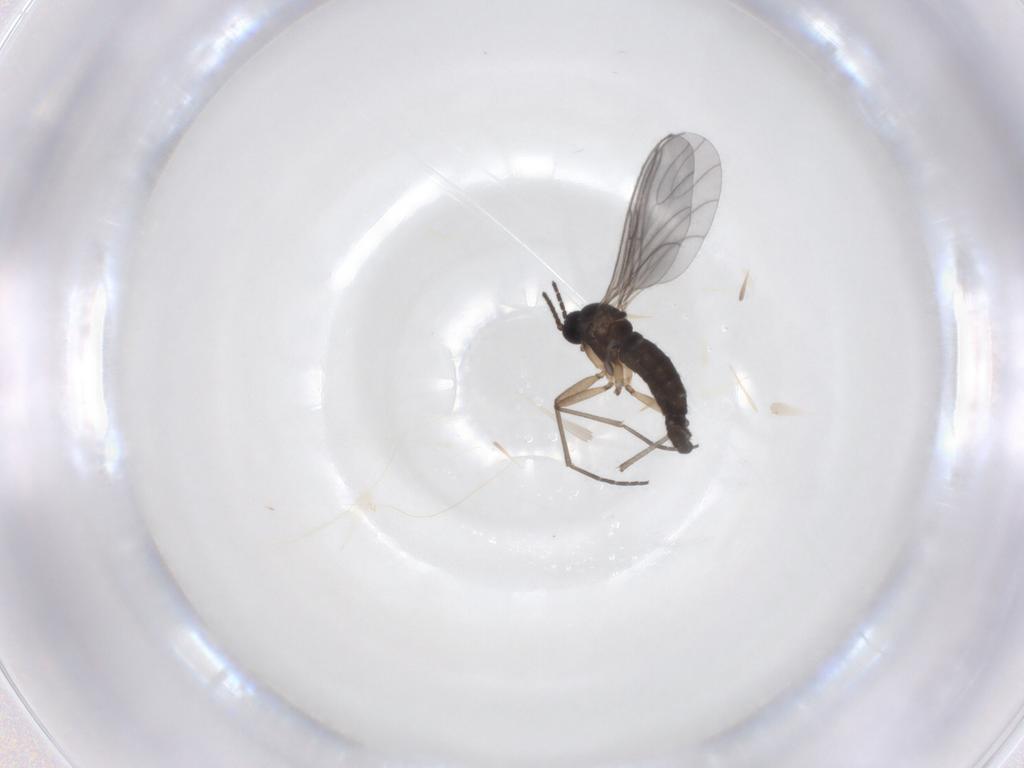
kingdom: Animalia
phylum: Arthropoda
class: Insecta
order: Diptera
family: Sciaridae
